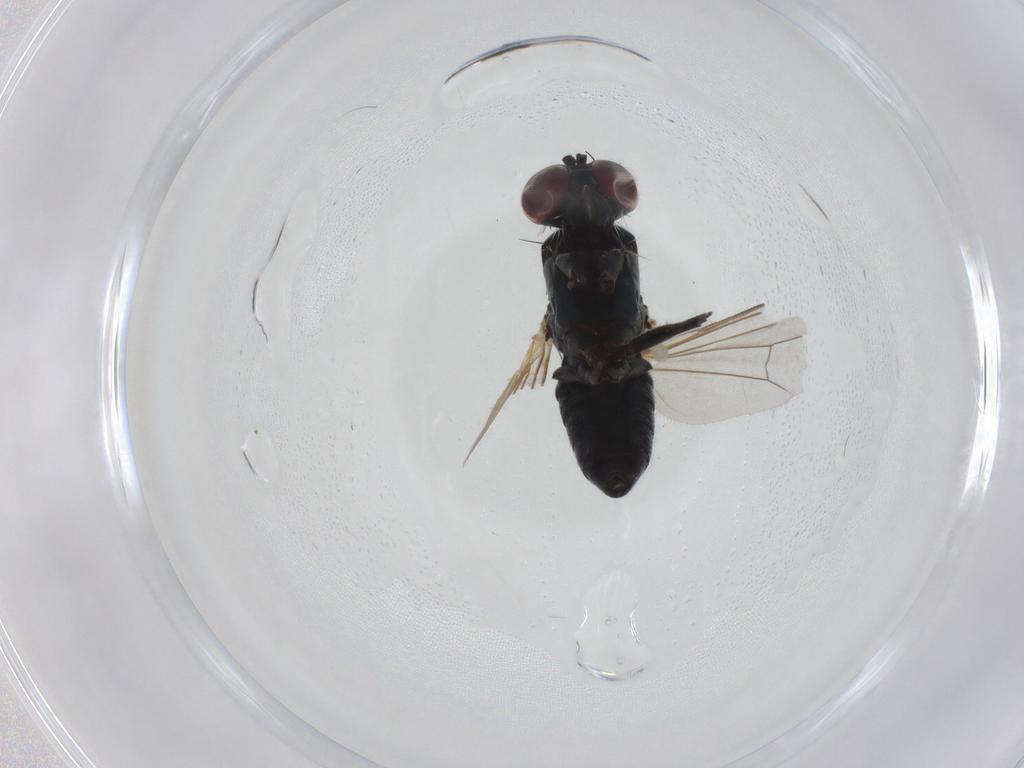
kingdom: Animalia
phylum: Arthropoda
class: Insecta
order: Diptera
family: Dolichopodidae
